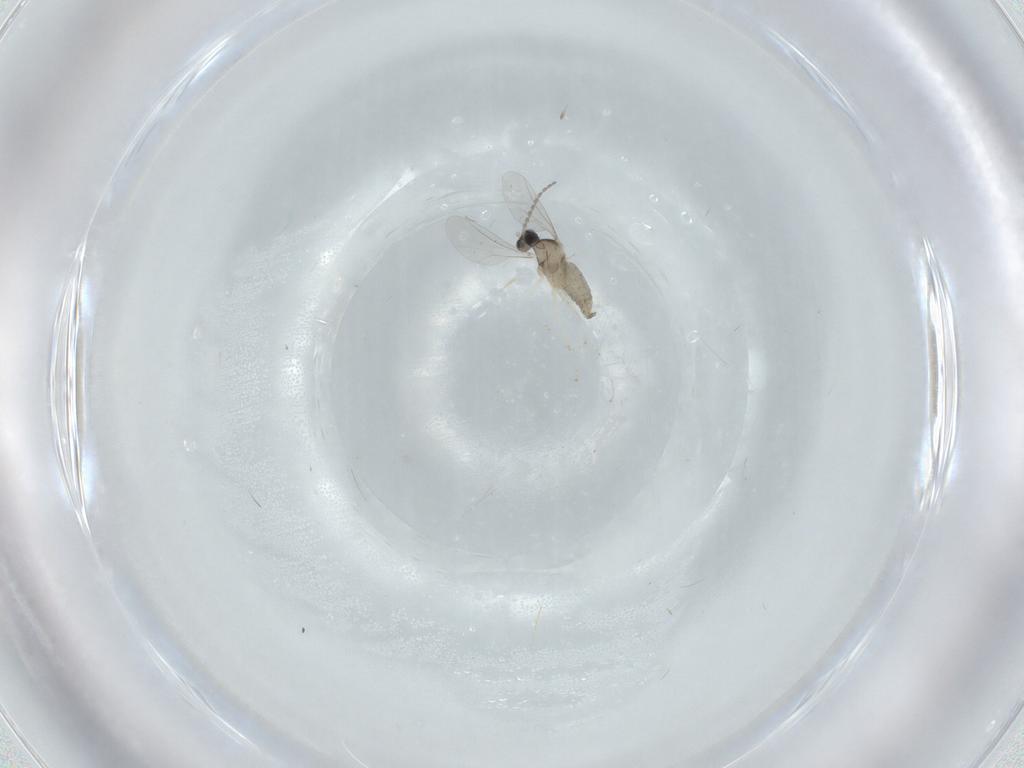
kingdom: Animalia
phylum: Arthropoda
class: Insecta
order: Diptera
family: Cecidomyiidae
